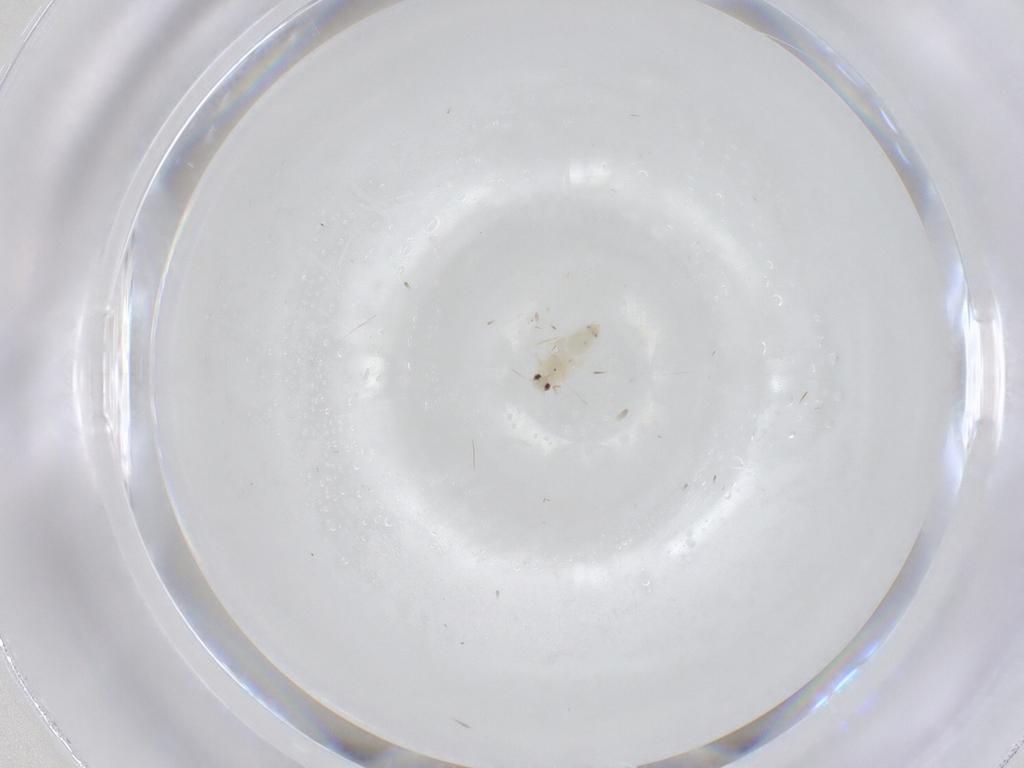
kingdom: Animalia
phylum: Arthropoda
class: Insecta
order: Hemiptera
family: Aleyrodidae
